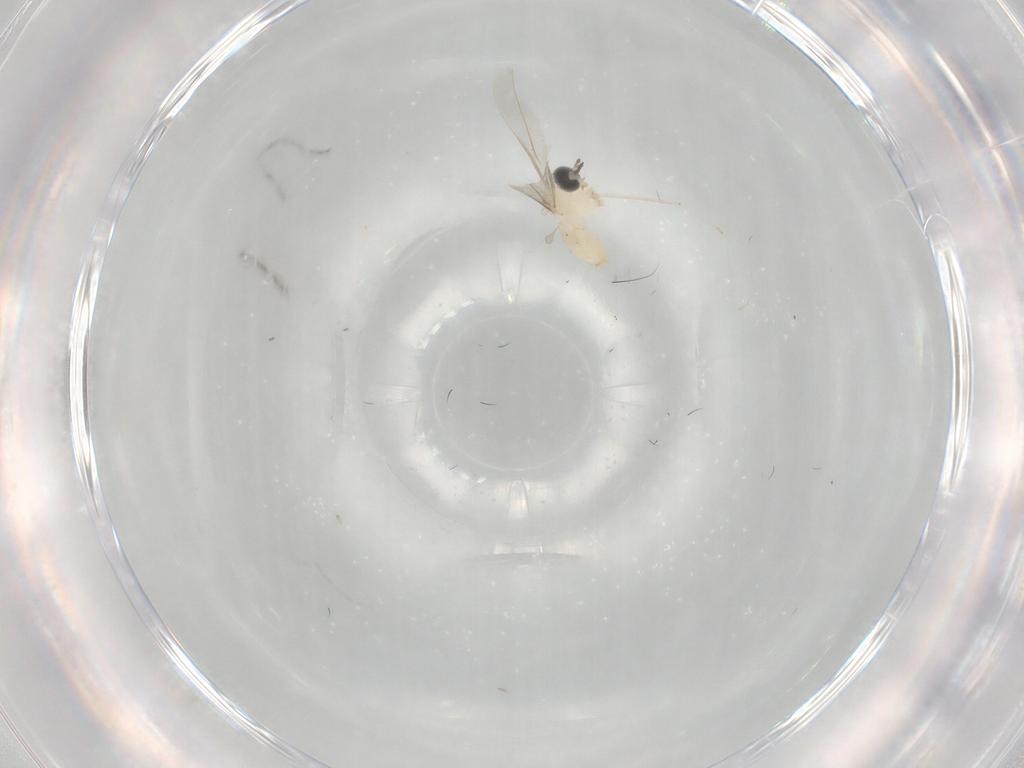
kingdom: Animalia
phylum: Arthropoda
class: Insecta
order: Diptera
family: Cecidomyiidae
